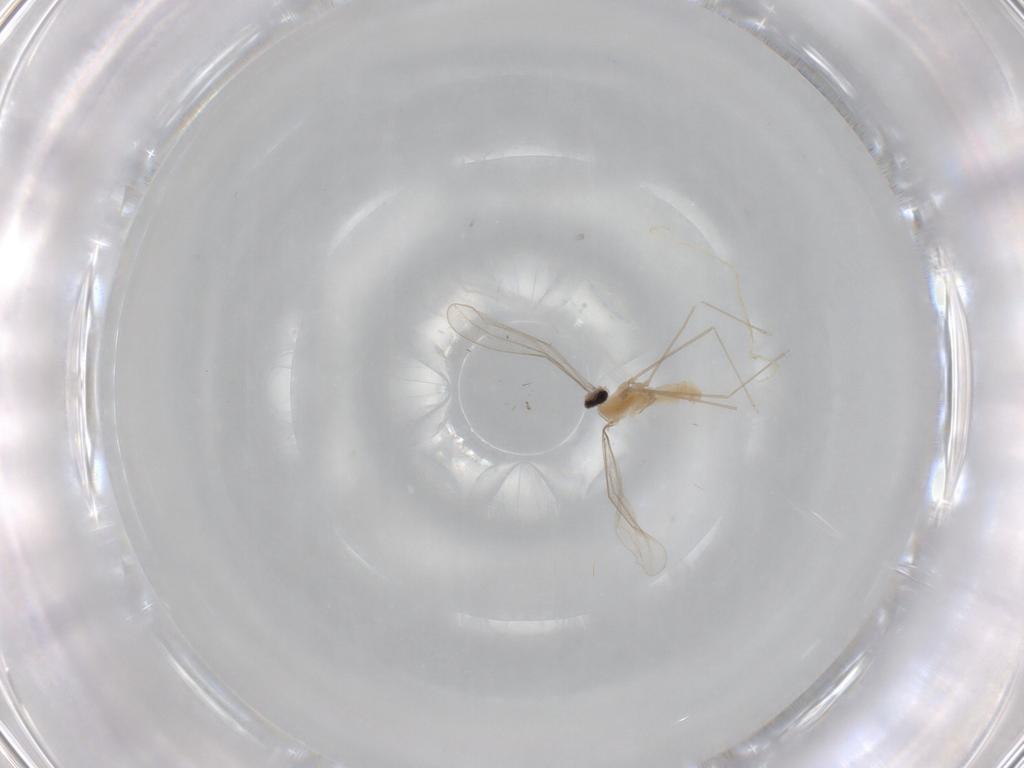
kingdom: Animalia
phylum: Arthropoda
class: Insecta
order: Diptera
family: Cecidomyiidae
